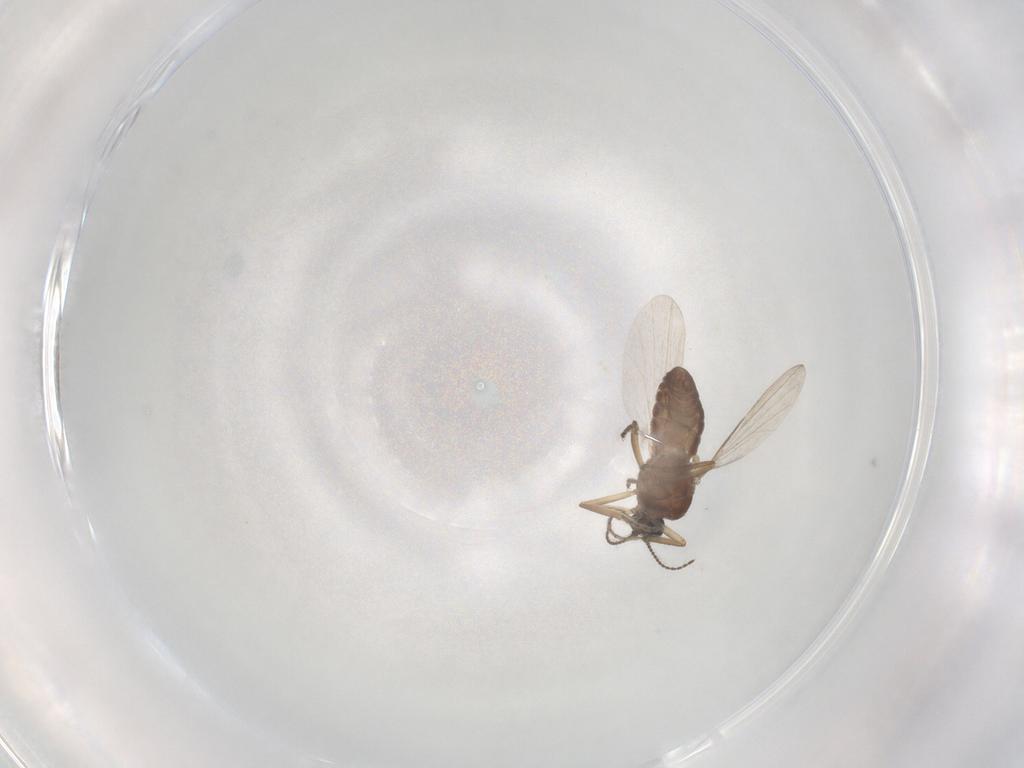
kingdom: Animalia
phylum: Arthropoda
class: Insecta
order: Diptera
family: Ceratopogonidae
